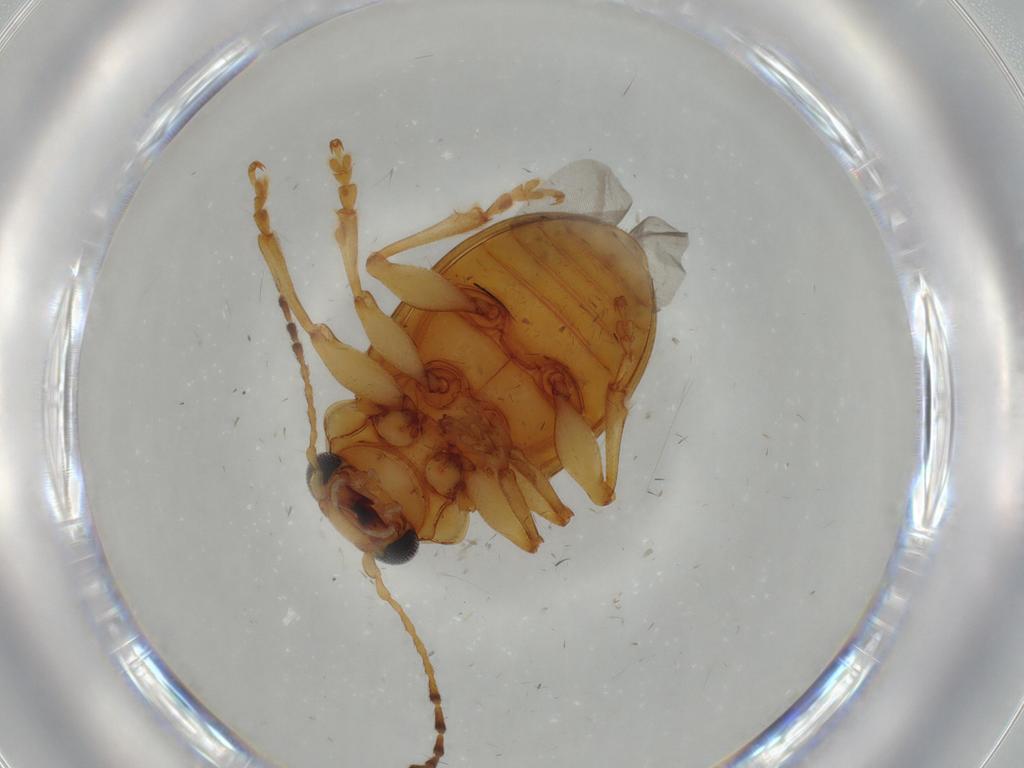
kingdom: Animalia
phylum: Arthropoda
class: Insecta
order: Coleoptera
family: Chrysomelidae
